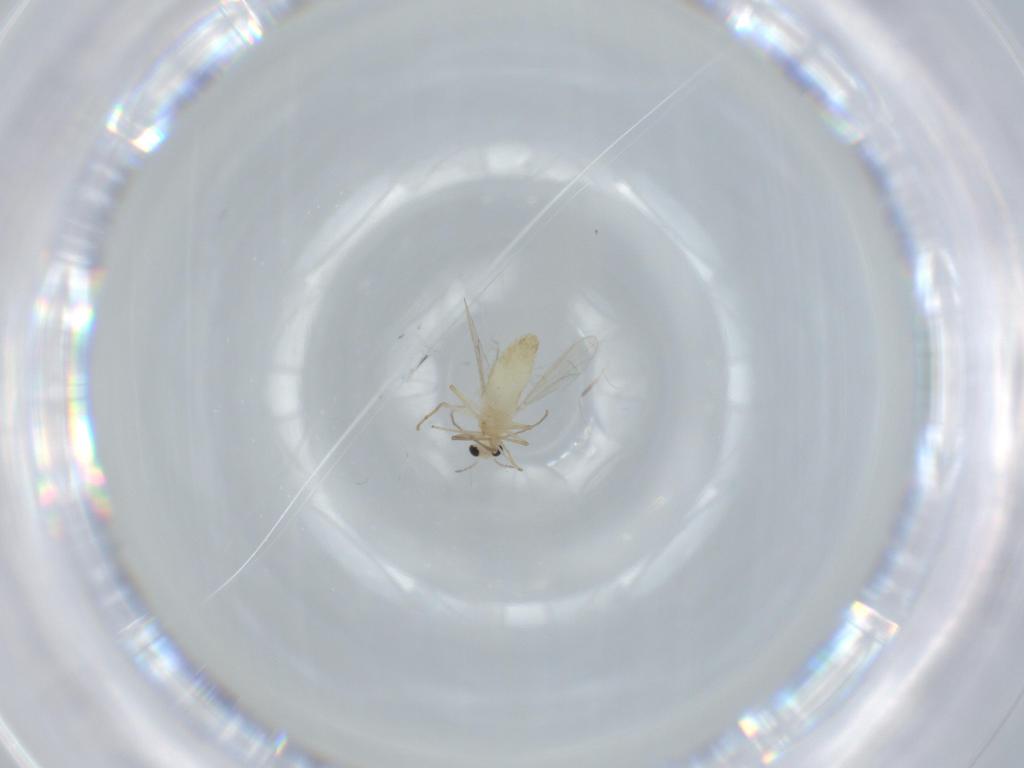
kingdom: Animalia
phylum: Arthropoda
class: Insecta
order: Diptera
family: Chironomidae
